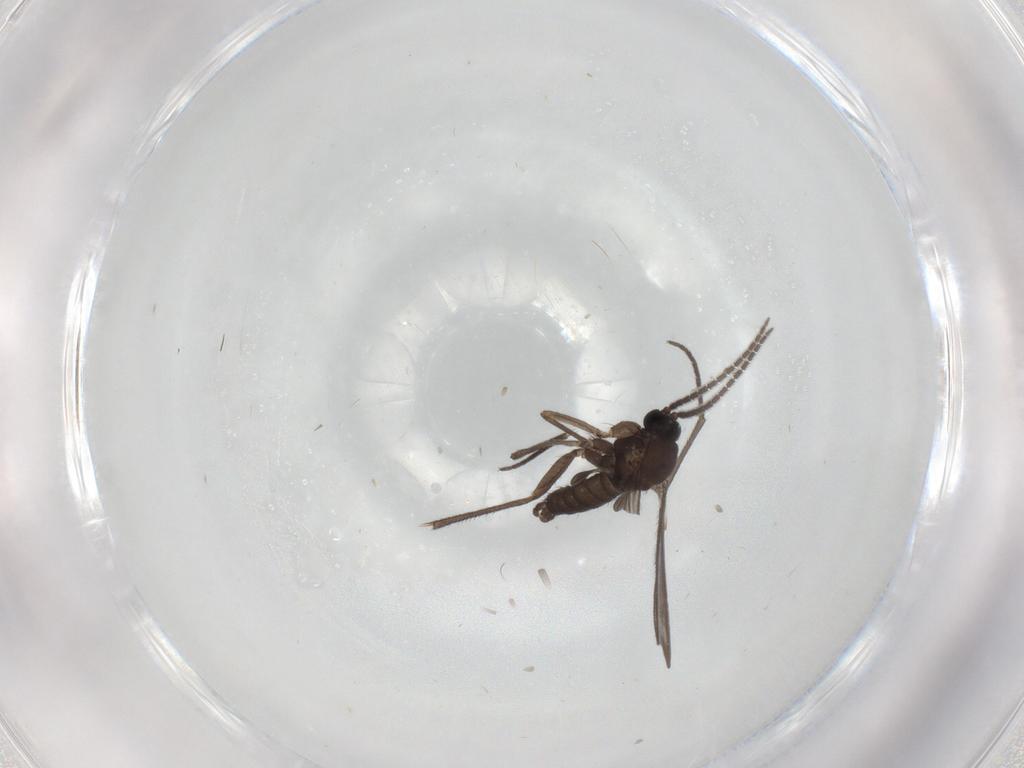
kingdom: Animalia
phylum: Arthropoda
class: Insecta
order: Diptera
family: Sciaridae
